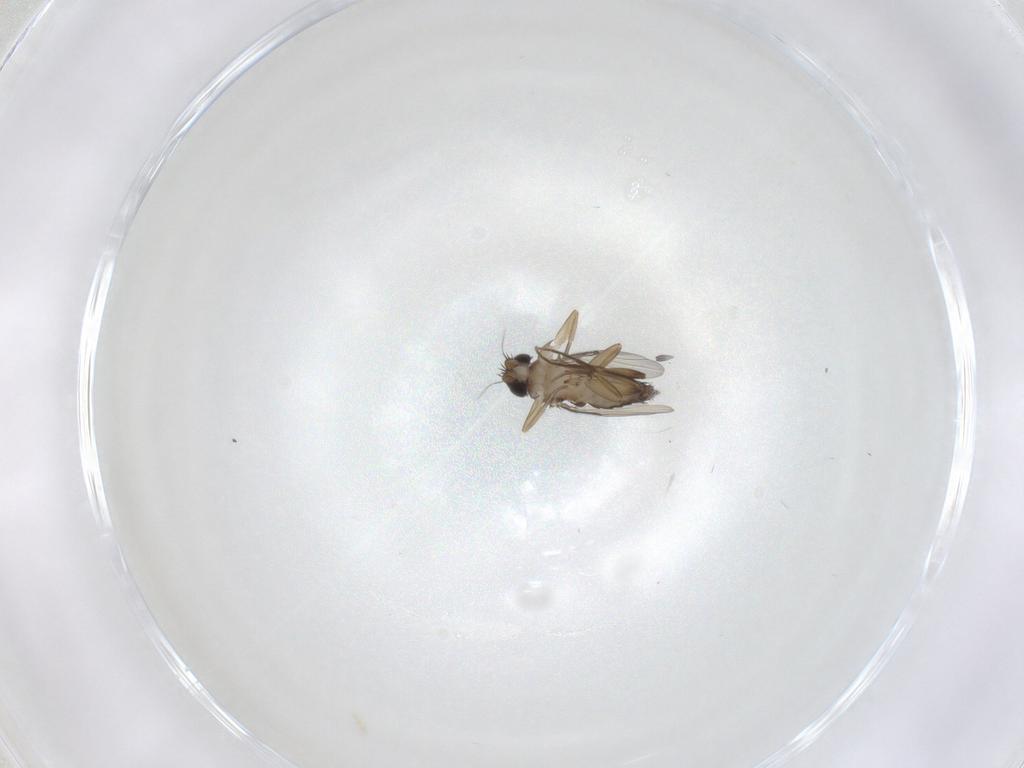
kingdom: Animalia
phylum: Arthropoda
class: Insecta
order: Diptera
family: Phoridae
